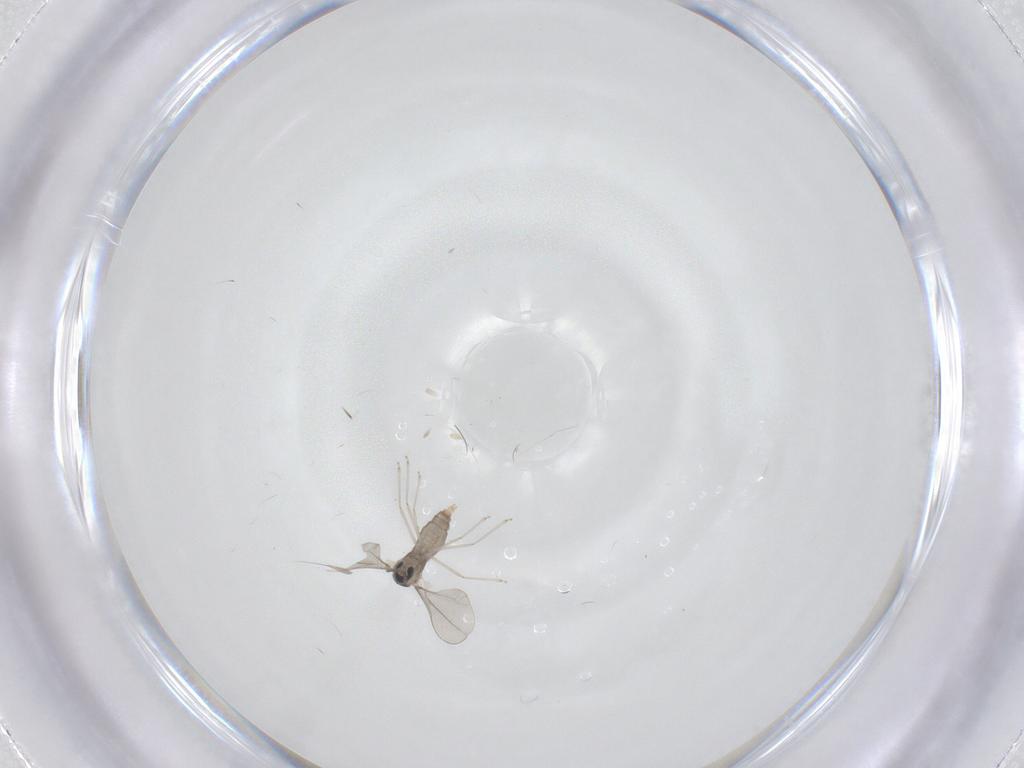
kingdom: Animalia
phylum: Arthropoda
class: Insecta
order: Diptera
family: Cecidomyiidae
